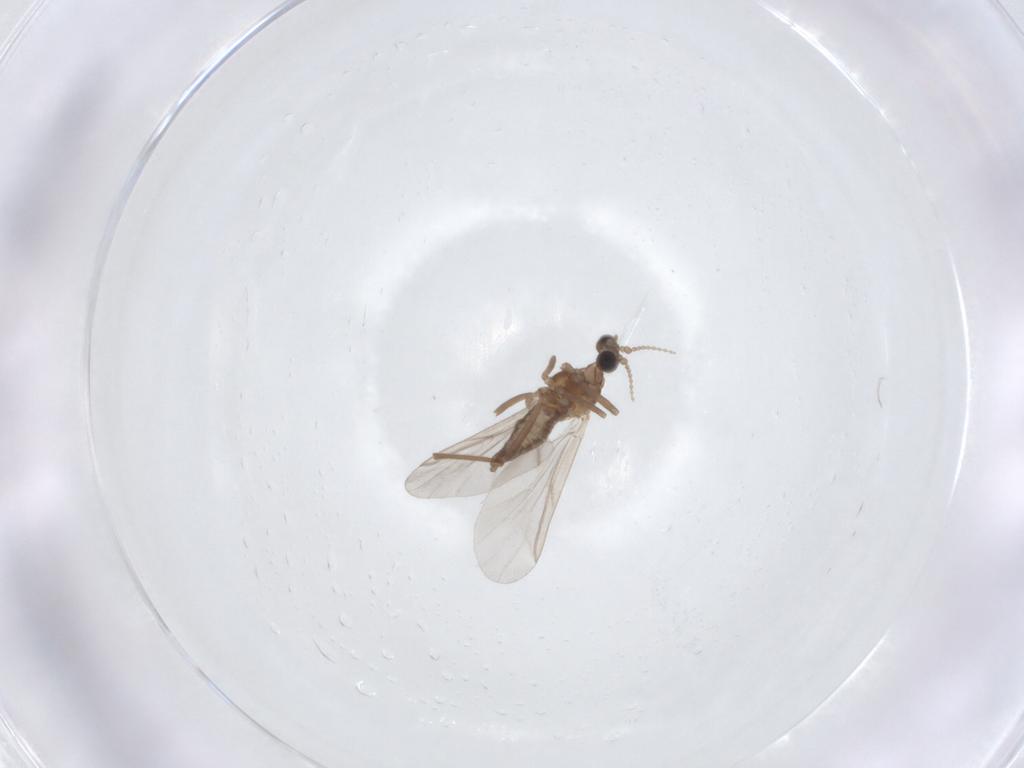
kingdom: Animalia
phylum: Arthropoda
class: Insecta
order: Diptera
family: Cecidomyiidae
